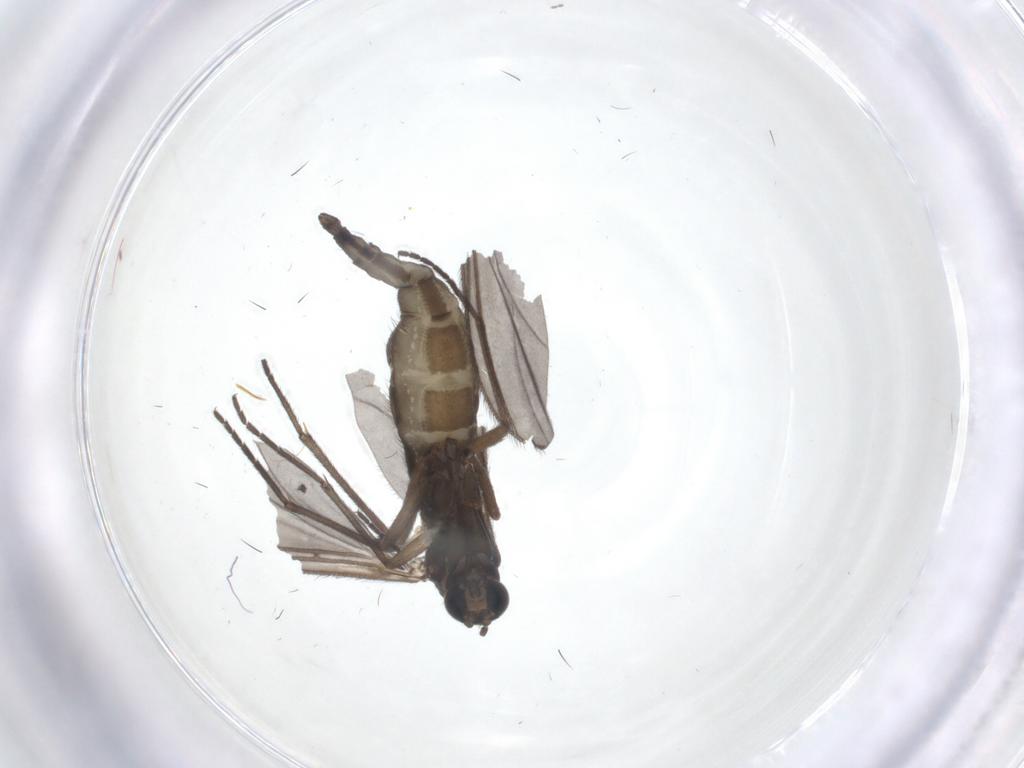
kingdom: Animalia
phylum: Arthropoda
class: Insecta
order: Diptera
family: Sciaridae
